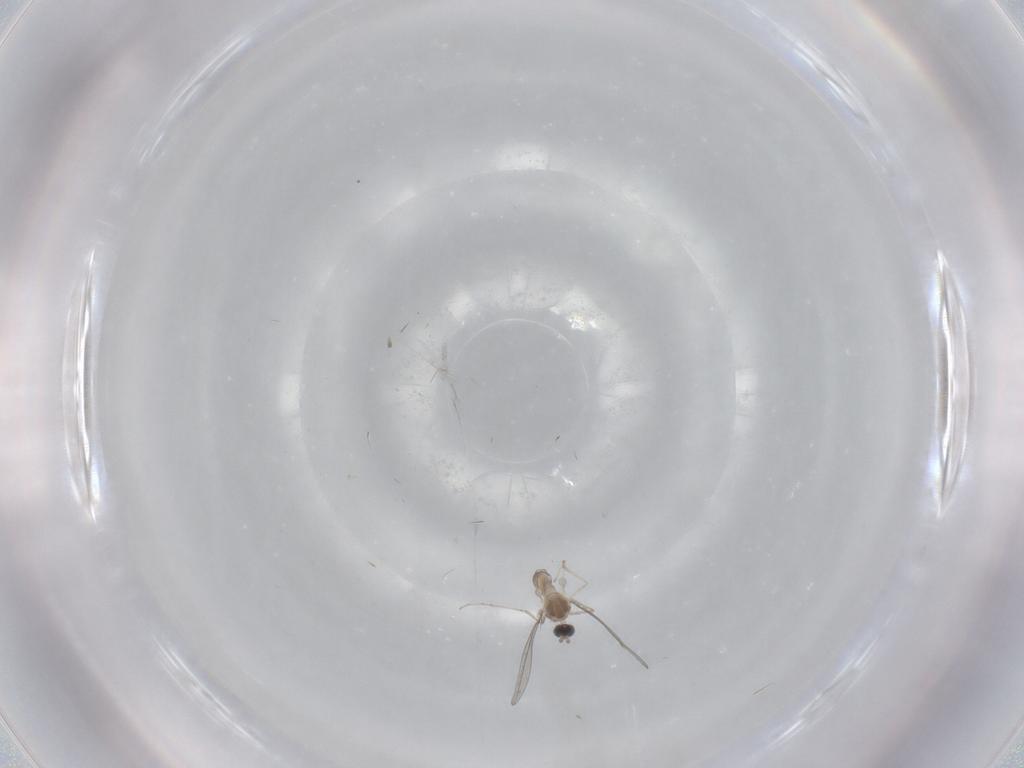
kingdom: Animalia
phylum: Arthropoda
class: Insecta
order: Diptera
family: Cecidomyiidae
